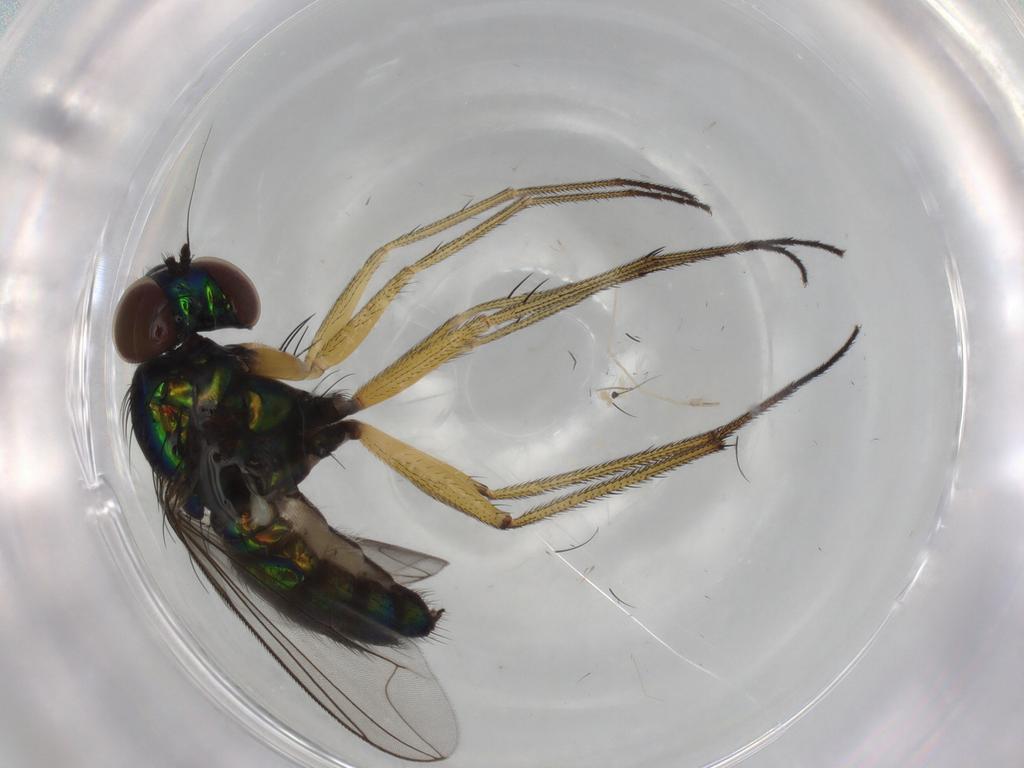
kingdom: Animalia
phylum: Arthropoda
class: Insecta
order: Diptera
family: Dolichopodidae
